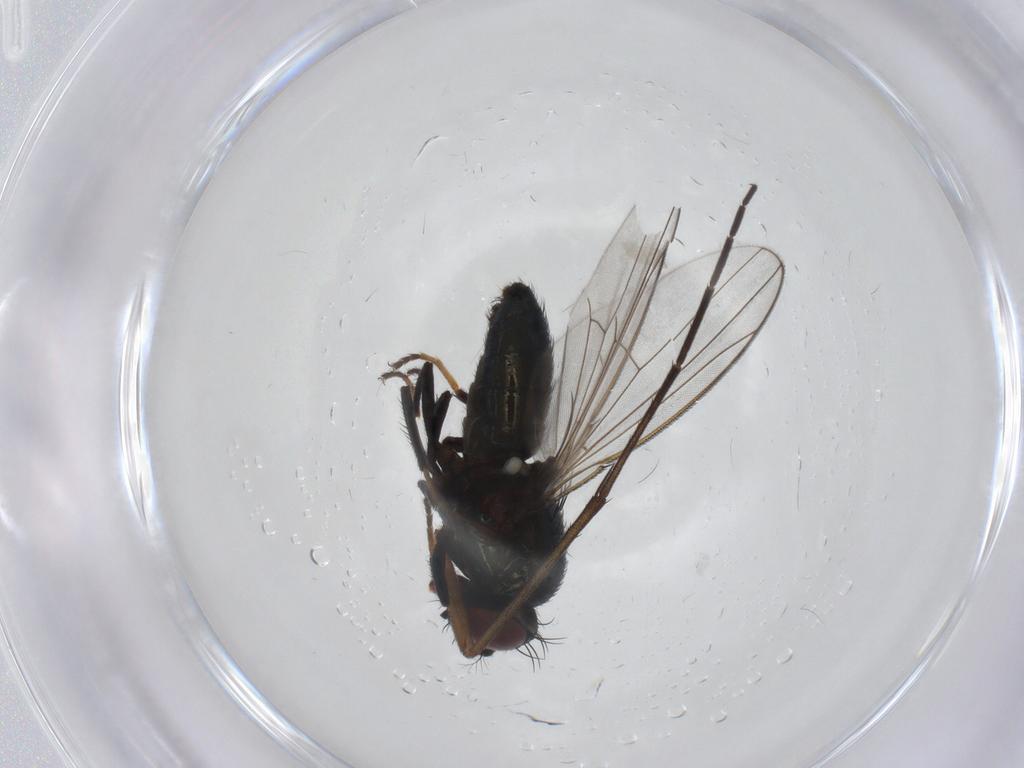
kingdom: Animalia
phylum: Arthropoda
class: Insecta
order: Diptera
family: Mycetophilidae
